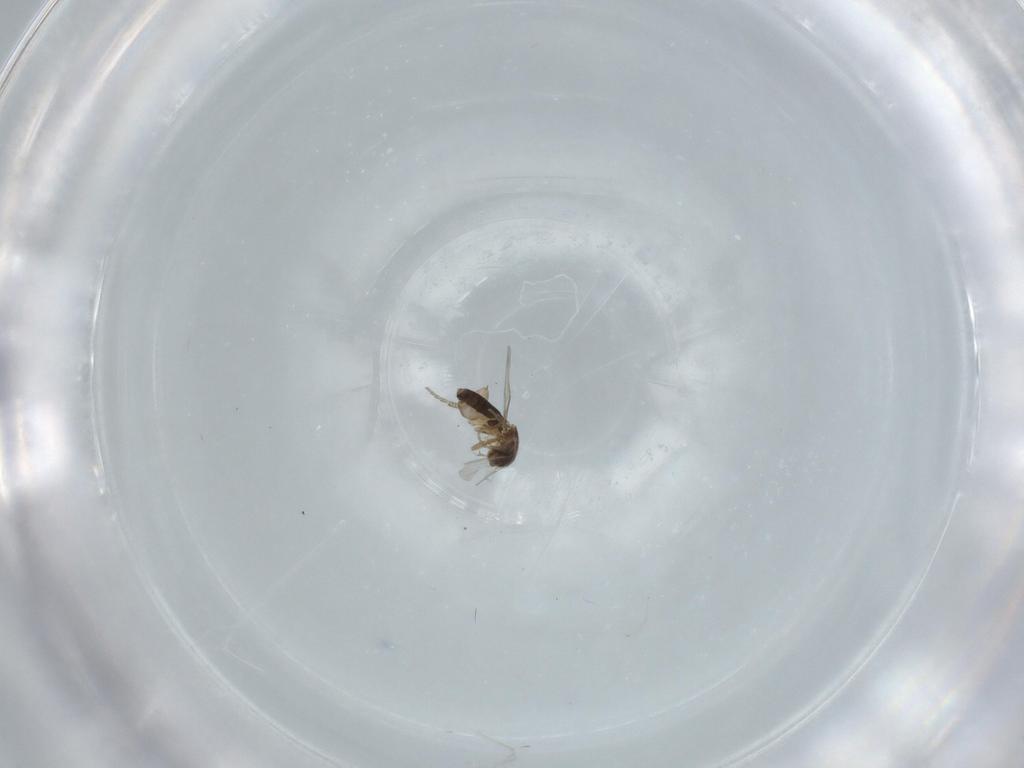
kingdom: Animalia
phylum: Arthropoda
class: Insecta
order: Diptera
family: Phoridae
